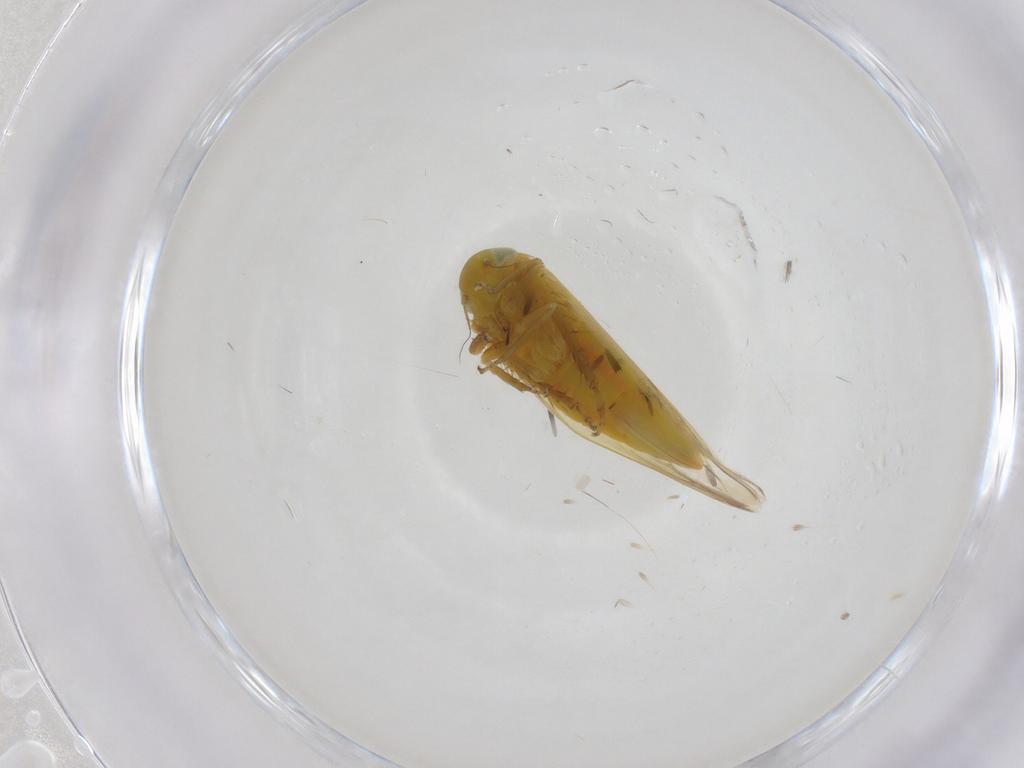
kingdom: Animalia
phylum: Arthropoda
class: Insecta
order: Hemiptera
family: Cicadellidae
